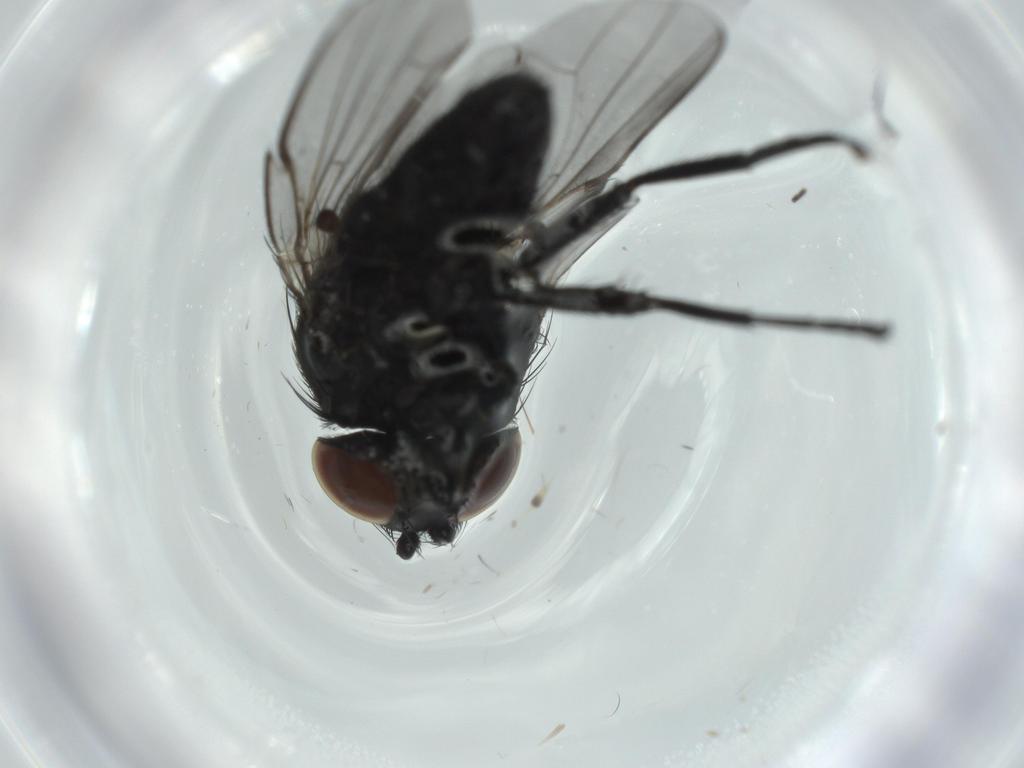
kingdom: Animalia
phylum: Arthropoda
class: Insecta
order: Diptera
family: Milichiidae
